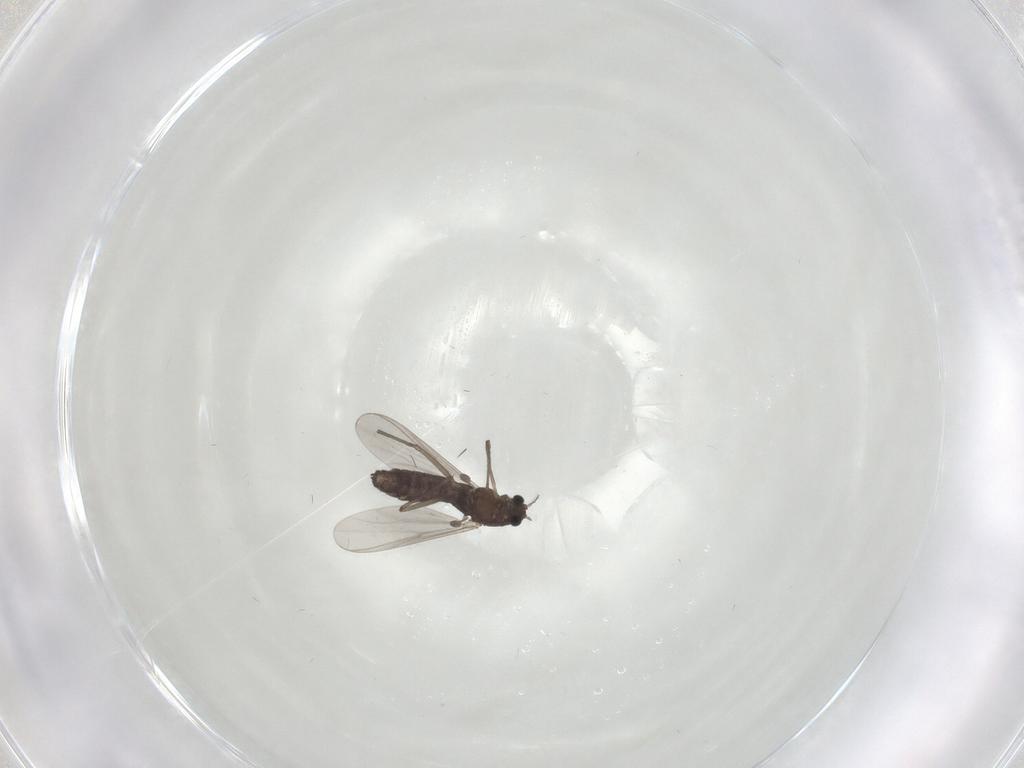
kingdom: Animalia
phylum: Arthropoda
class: Insecta
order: Diptera
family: Chironomidae
